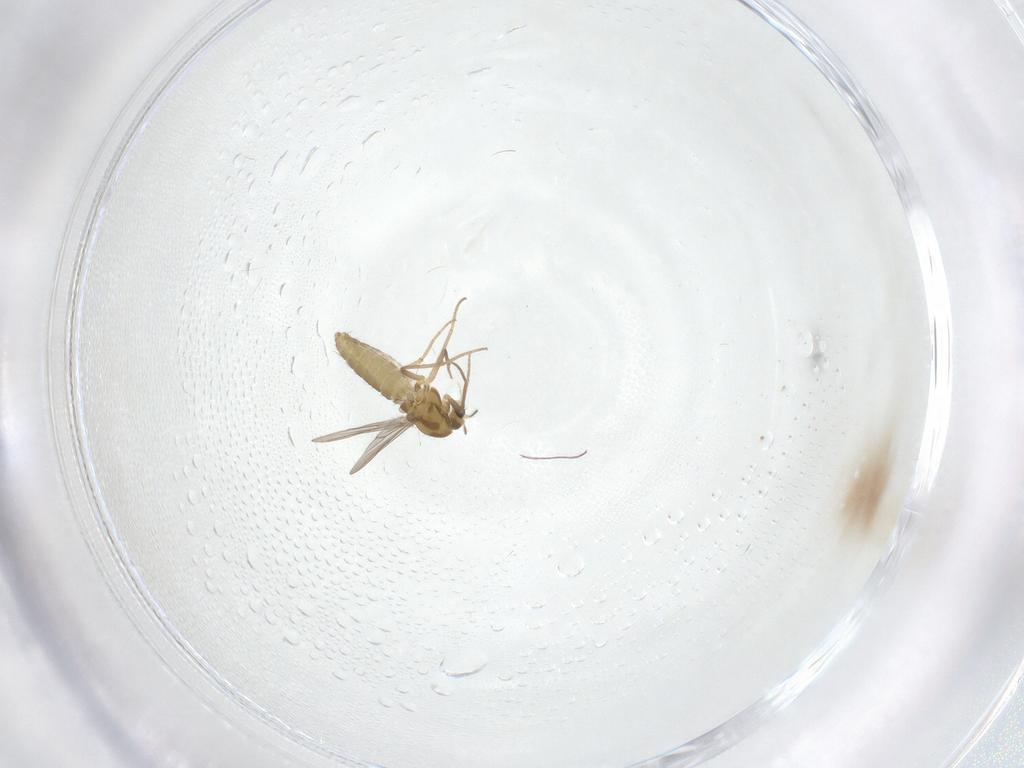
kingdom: Animalia
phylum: Arthropoda
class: Insecta
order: Diptera
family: Chironomidae
